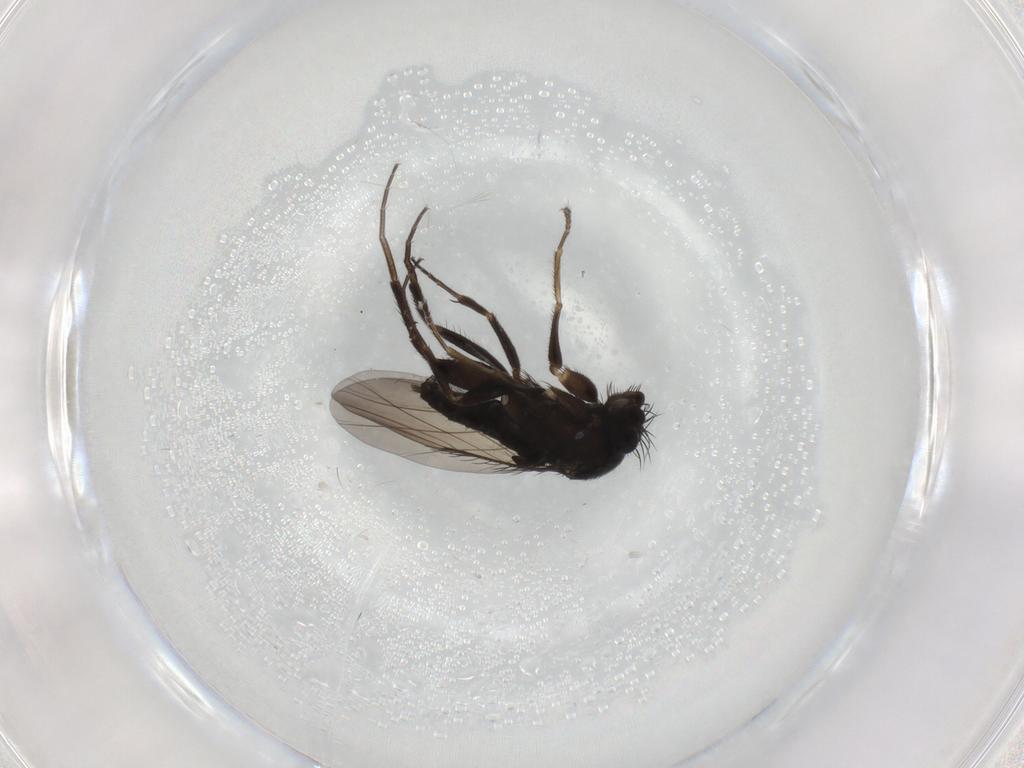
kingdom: Animalia
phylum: Arthropoda
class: Insecta
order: Diptera
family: Phoridae
